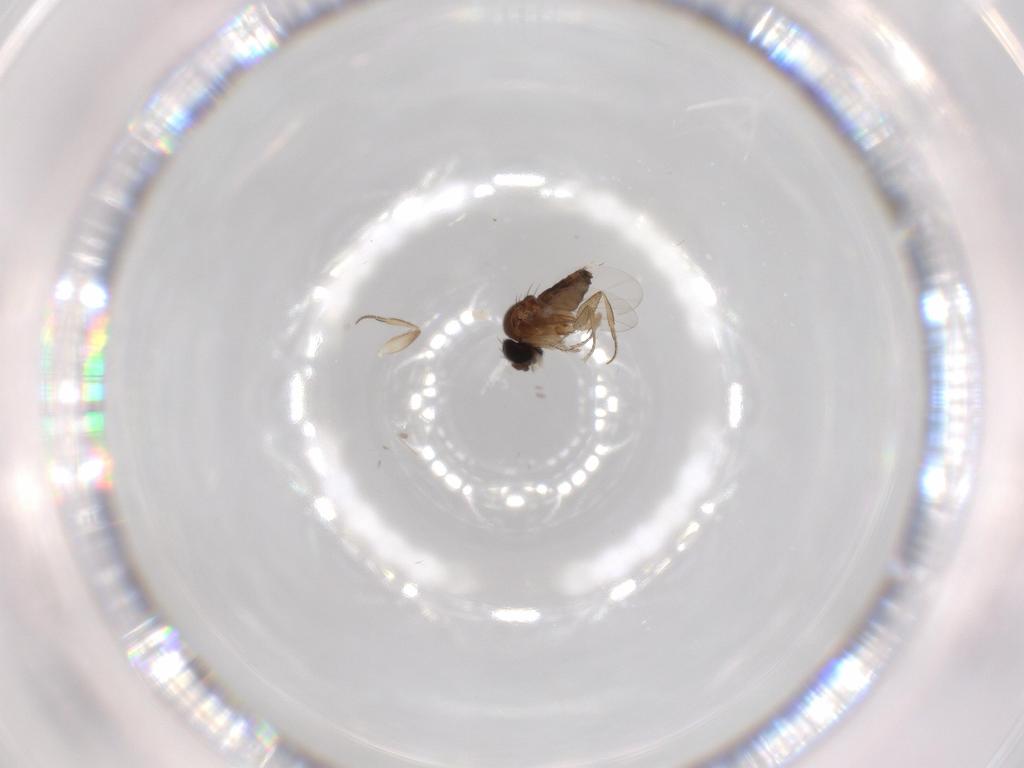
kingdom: Animalia
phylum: Arthropoda
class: Insecta
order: Diptera
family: Phoridae
